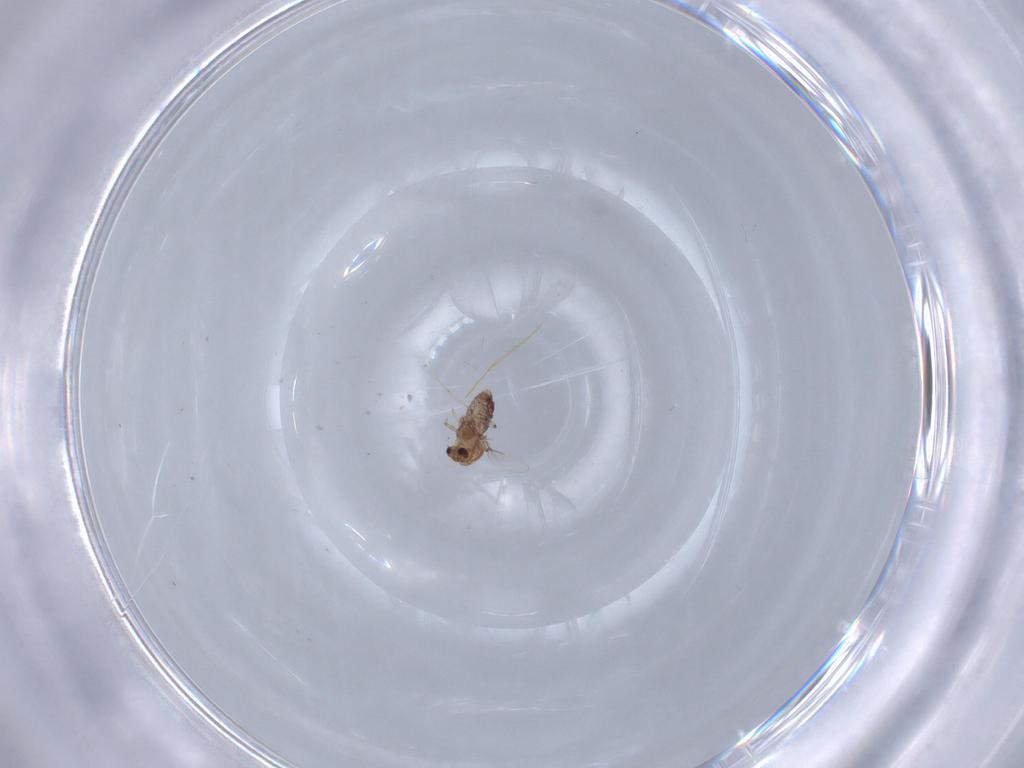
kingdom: Animalia
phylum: Arthropoda
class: Insecta
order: Diptera
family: Chironomidae
